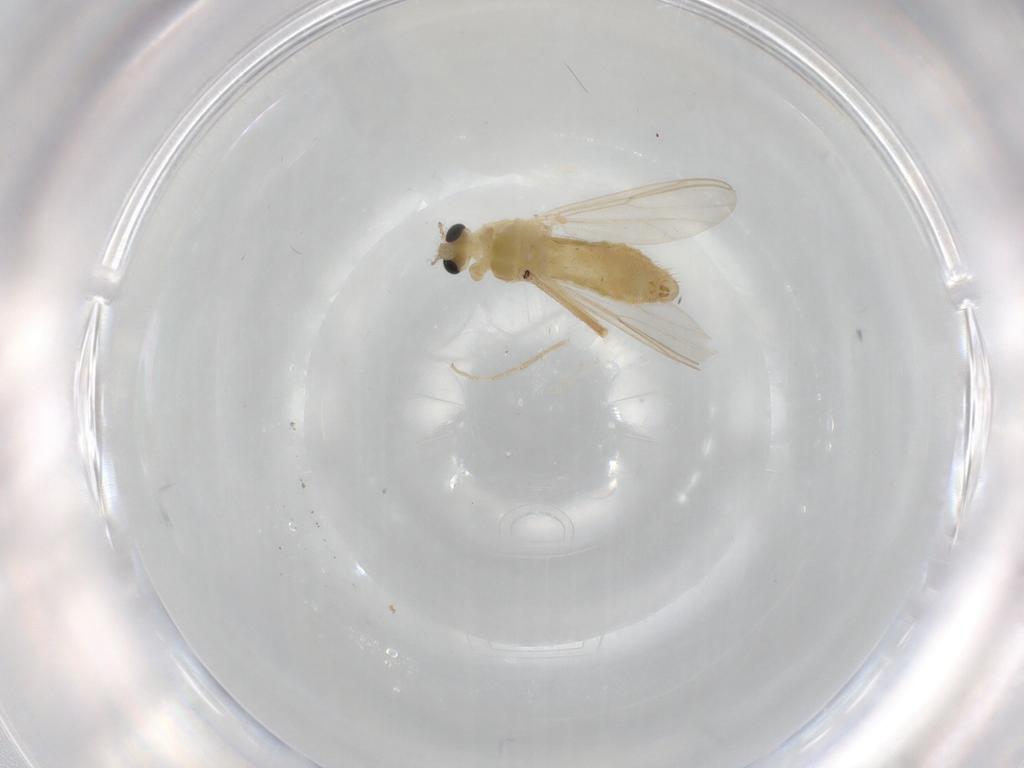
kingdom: Animalia
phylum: Arthropoda
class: Insecta
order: Diptera
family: Chironomidae
